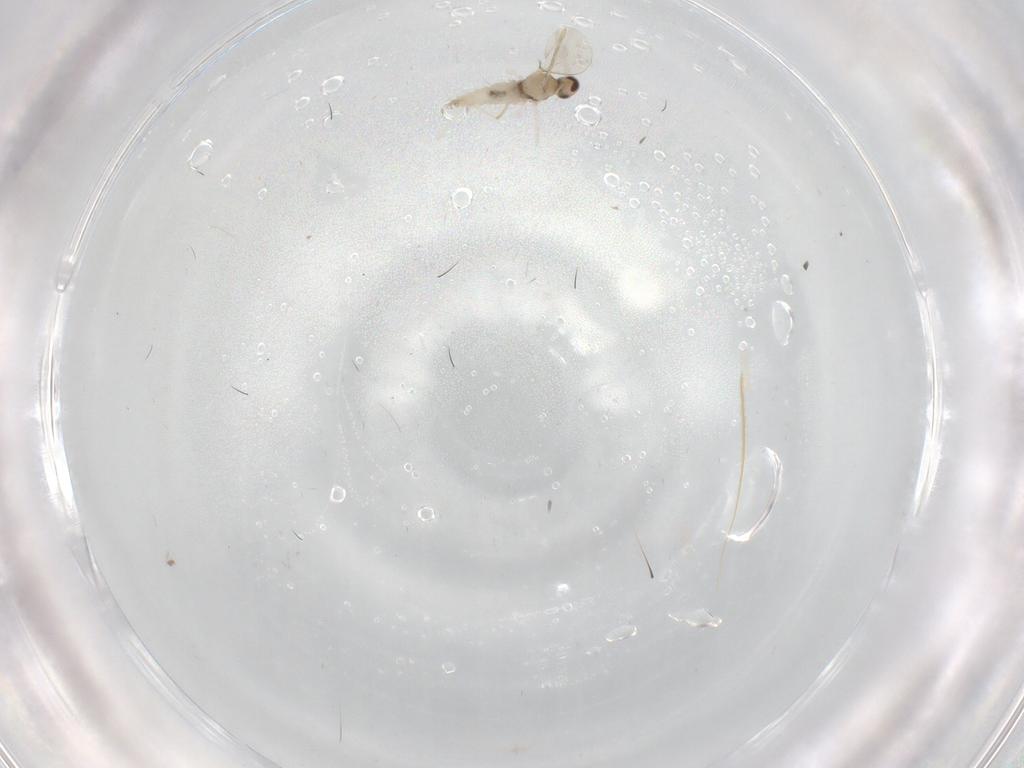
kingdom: Animalia
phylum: Arthropoda
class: Insecta
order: Diptera
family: Cecidomyiidae
